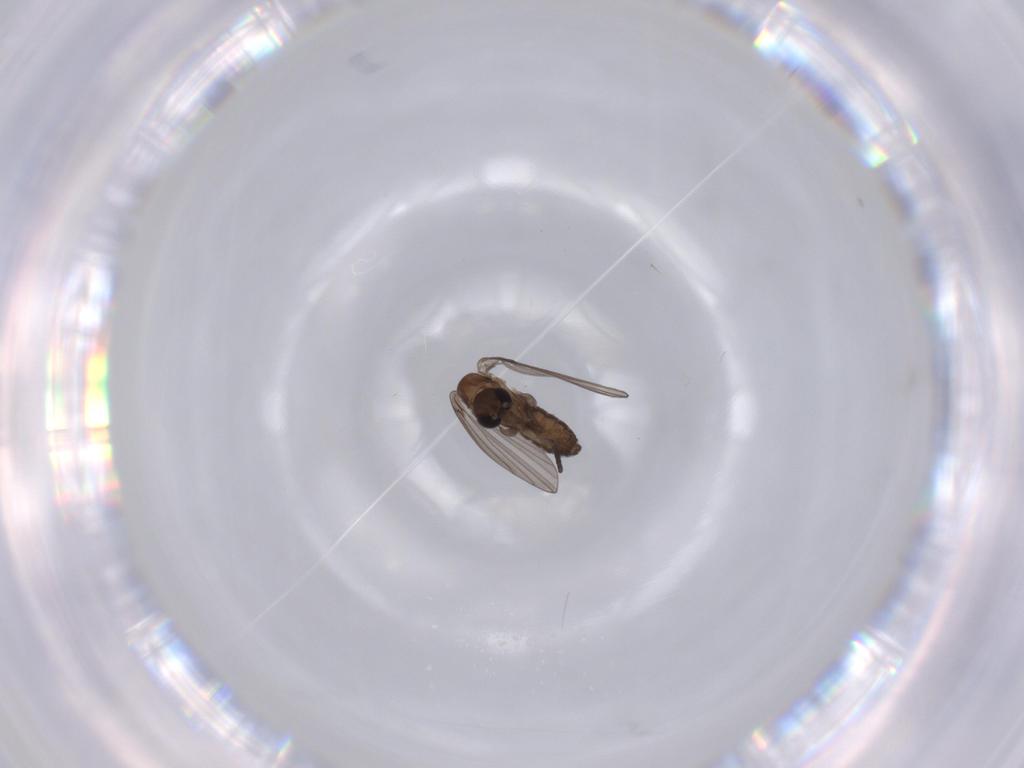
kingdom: Animalia
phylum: Arthropoda
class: Insecta
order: Diptera
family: Psychodidae
